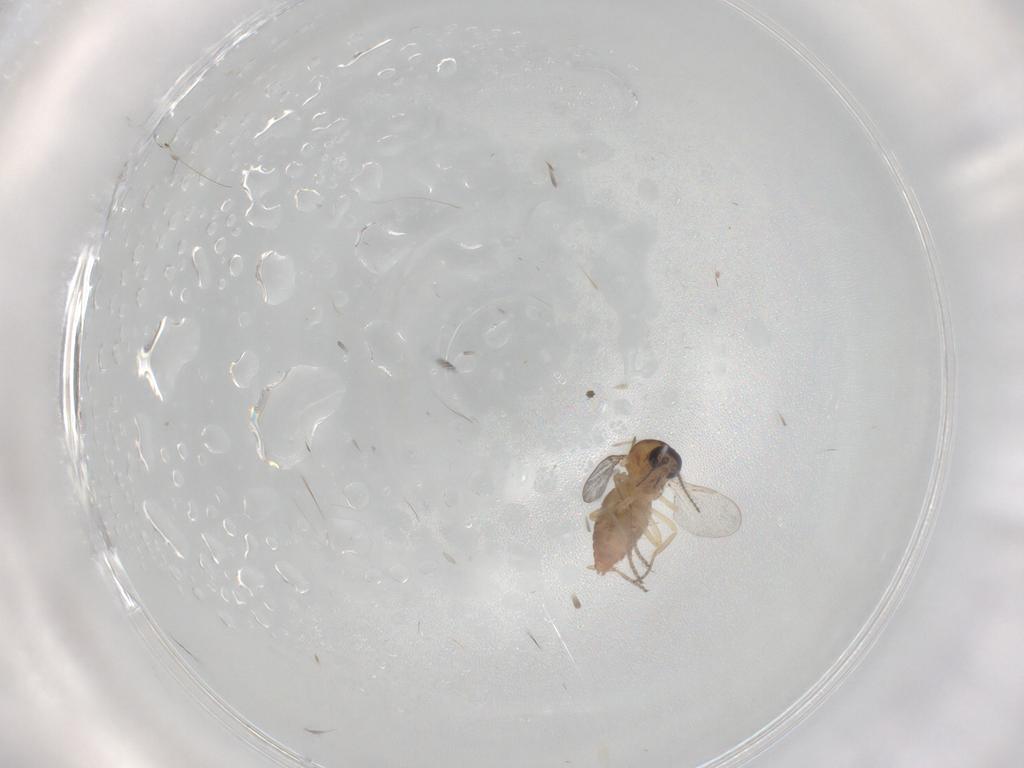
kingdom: Animalia
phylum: Arthropoda
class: Insecta
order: Diptera
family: Ceratopogonidae
